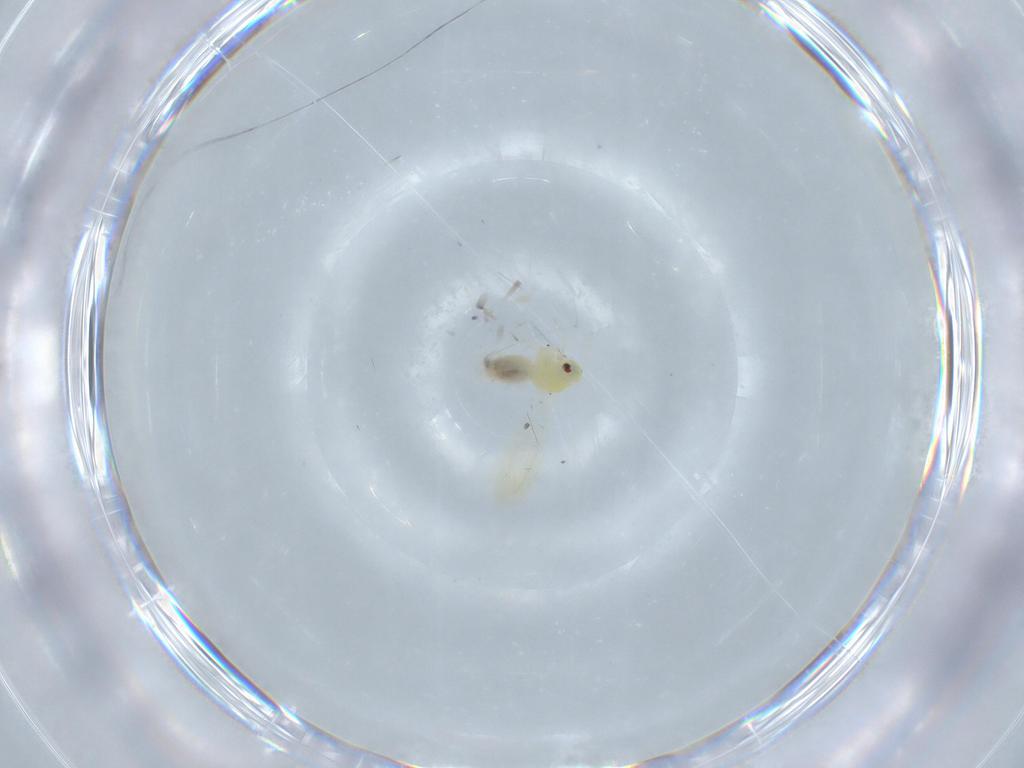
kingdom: Animalia
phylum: Arthropoda
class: Insecta
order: Hemiptera
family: Aleyrodidae
